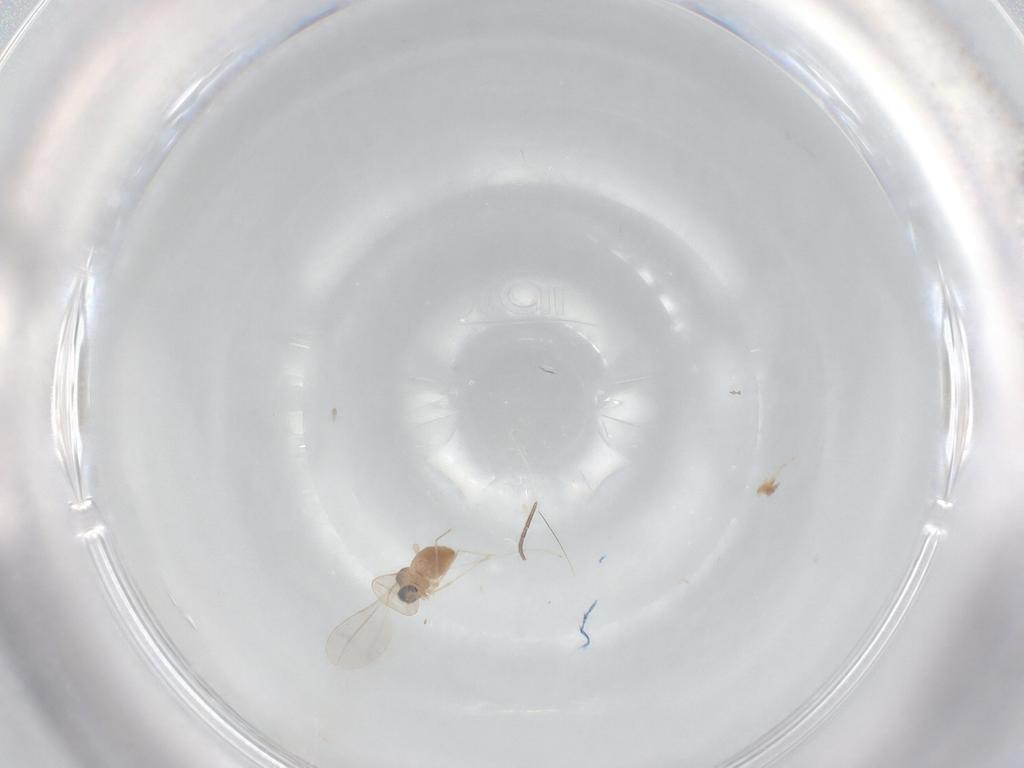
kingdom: Animalia
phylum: Arthropoda
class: Insecta
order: Diptera
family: Cecidomyiidae
